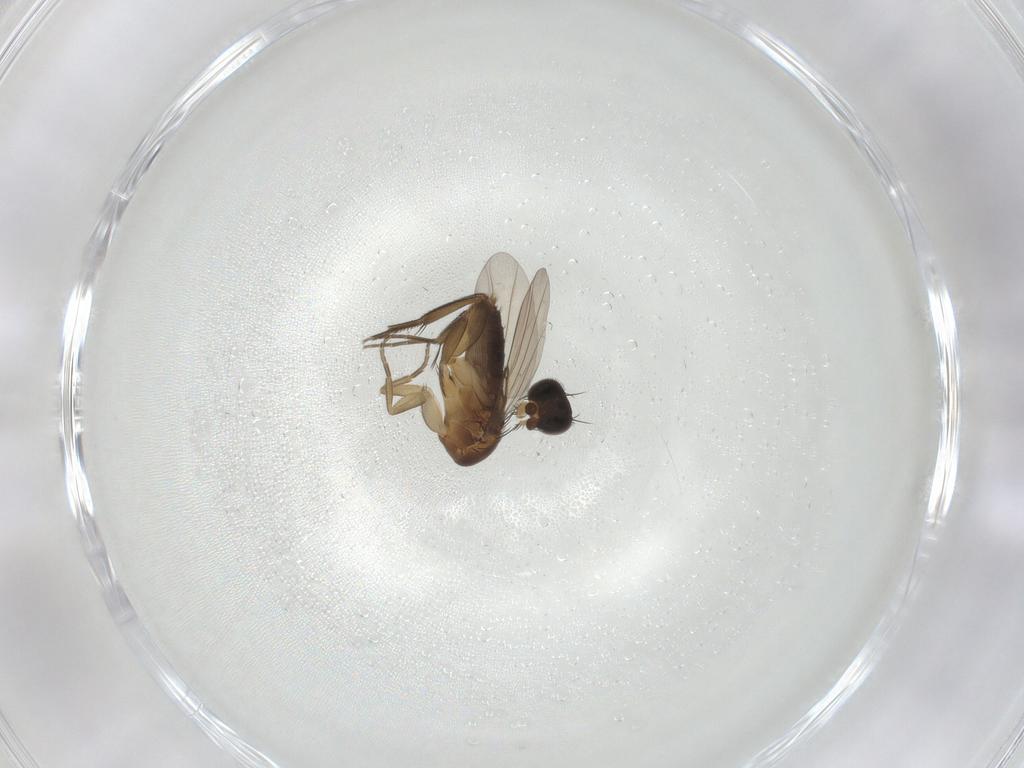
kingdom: Animalia
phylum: Arthropoda
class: Insecta
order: Diptera
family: Phoridae
